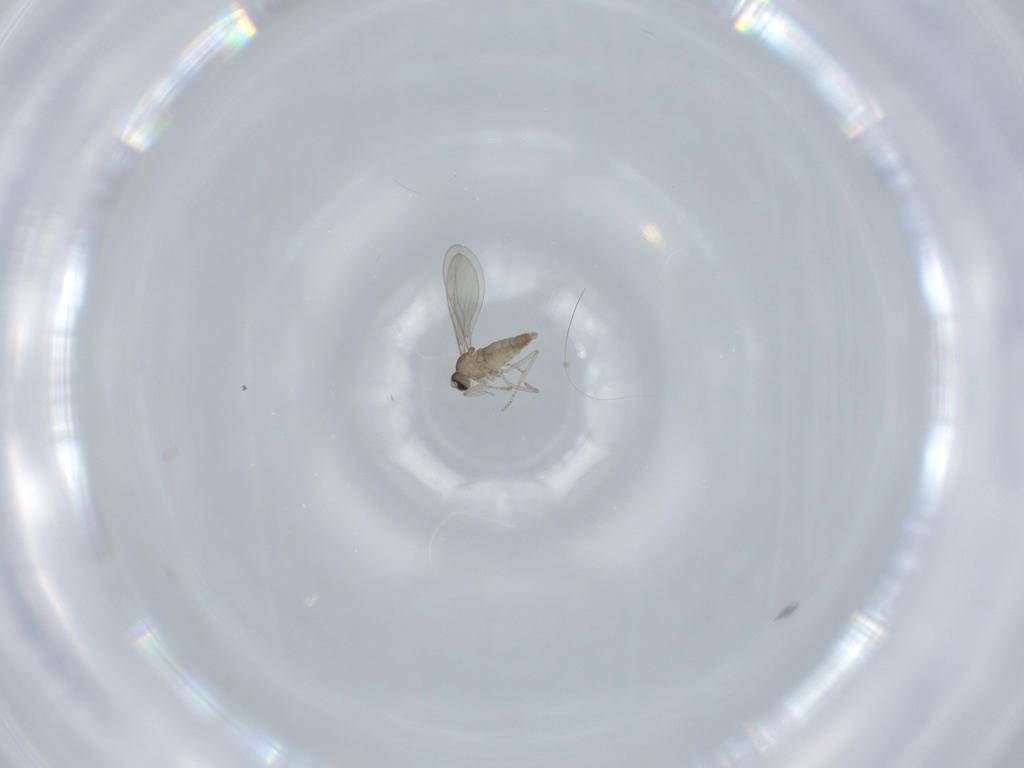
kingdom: Animalia
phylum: Arthropoda
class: Insecta
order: Diptera
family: Cecidomyiidae
